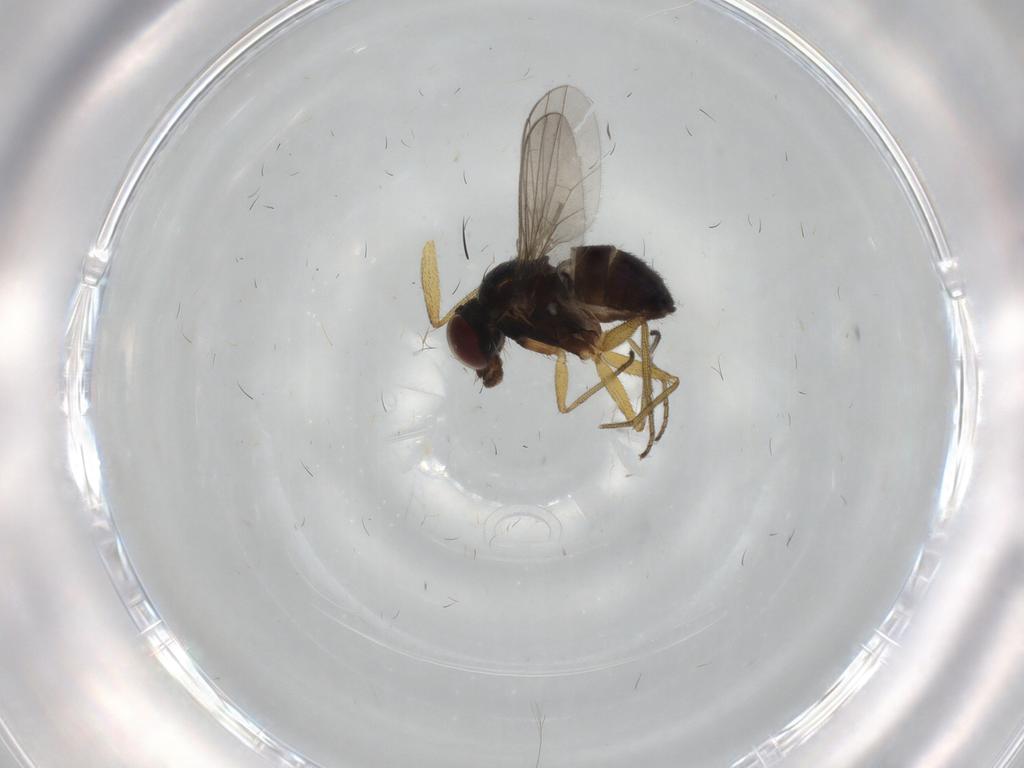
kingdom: Animalia
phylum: Arthropoda
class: Insecta
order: Diptera
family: Dolichopodidae
